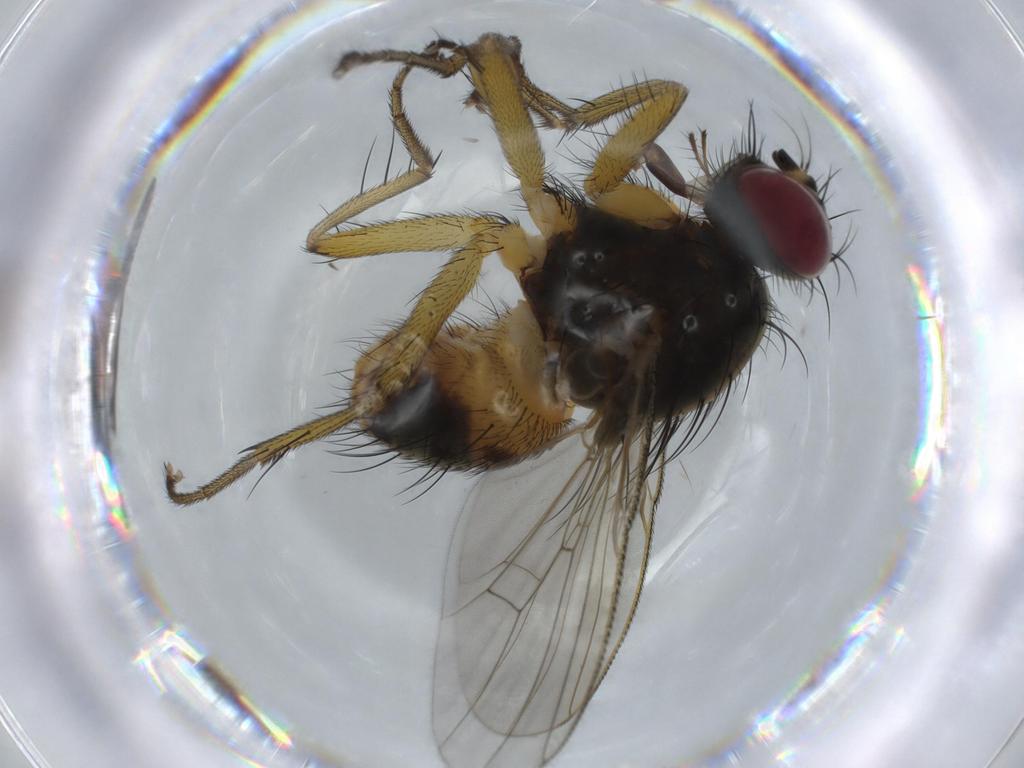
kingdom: Animalia
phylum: Arthropoda
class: Insecta
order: Diptera
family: Muscidae
